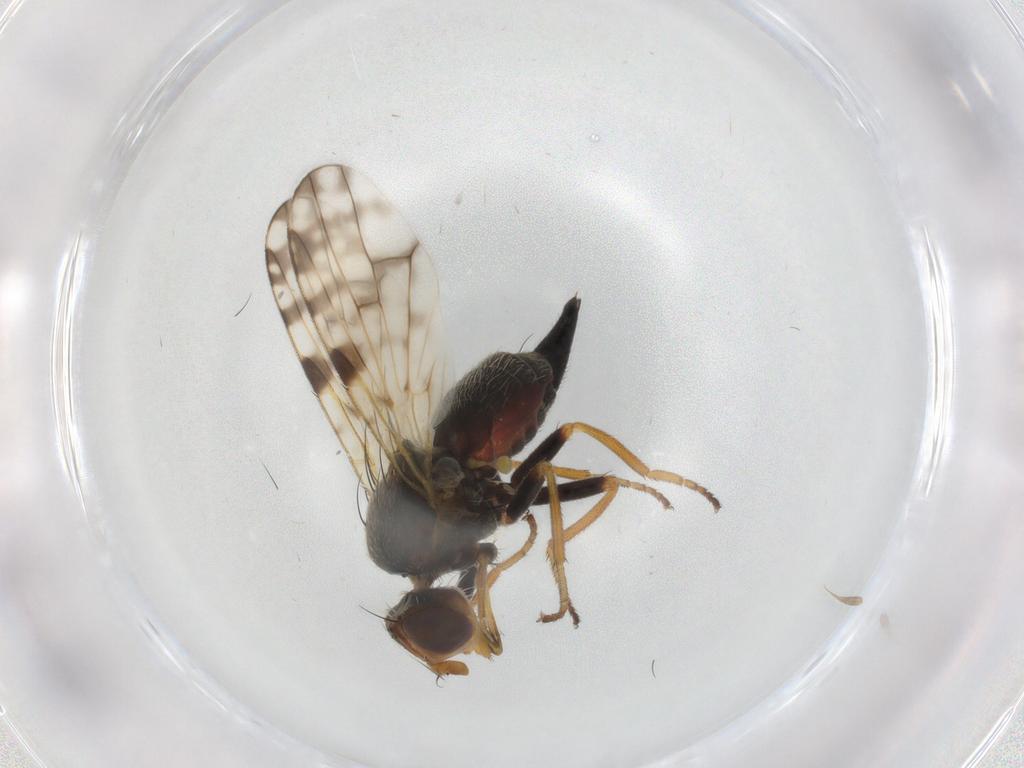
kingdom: Animalia
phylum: Arthropoda
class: Insecta
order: Diptera
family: Tephritidae
